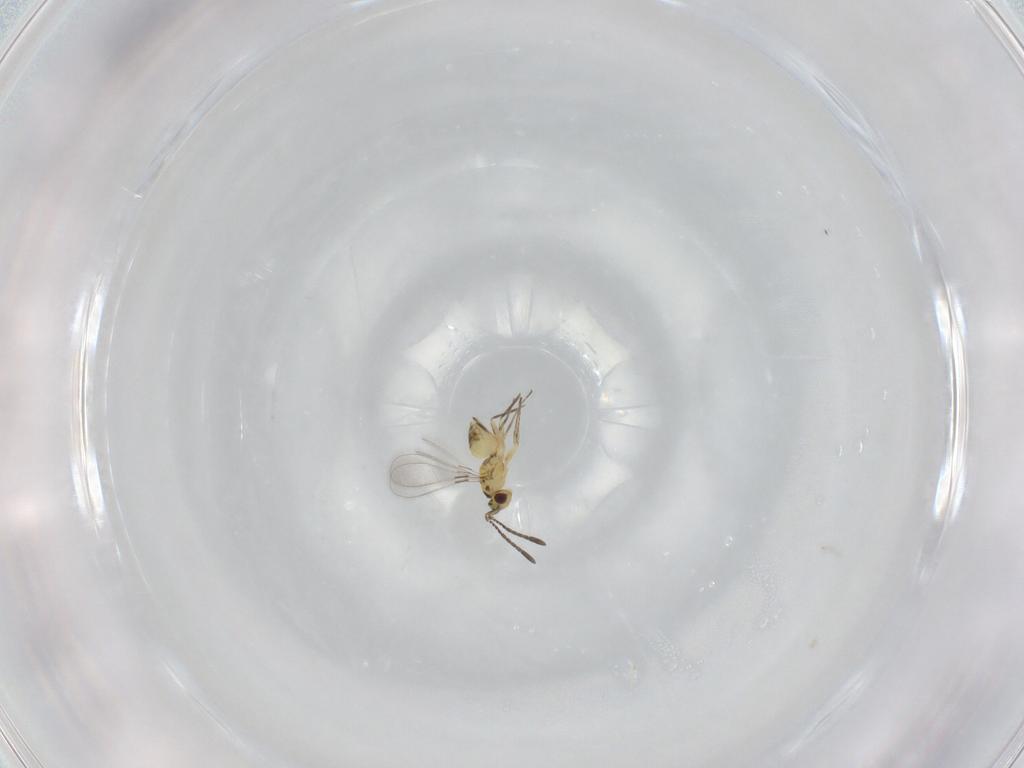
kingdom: Animalia
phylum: Arthropoda
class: Insecta
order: Hymenoptera
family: Mymaridae
